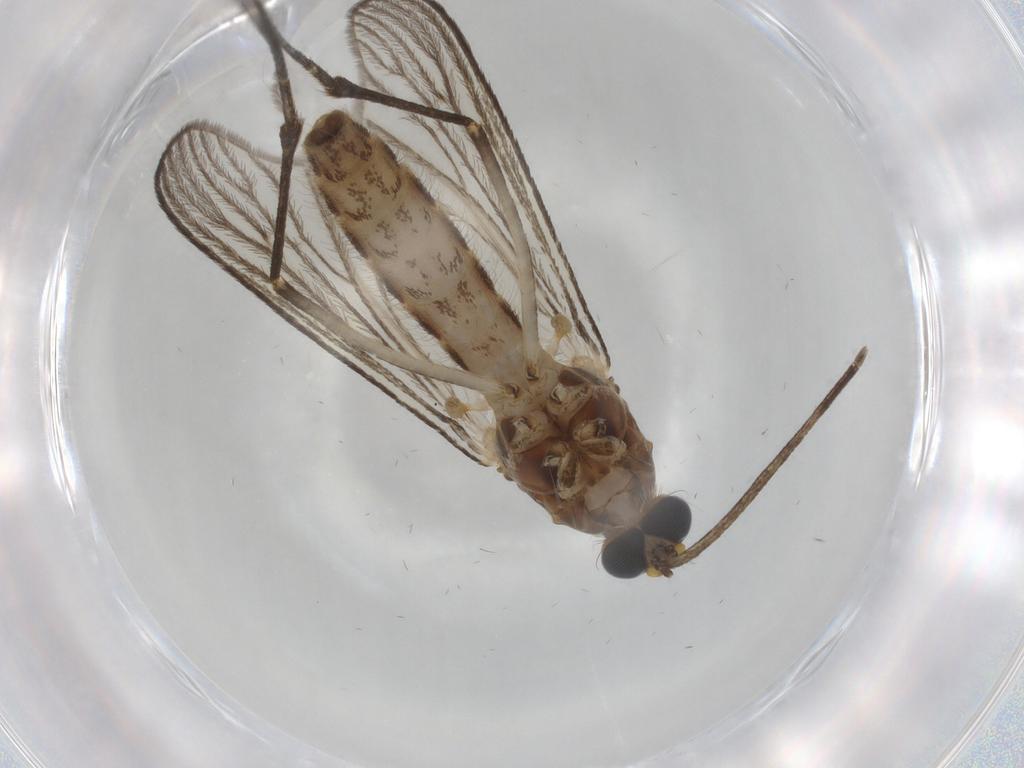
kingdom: Animalia
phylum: Arthropoda
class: Insecta
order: Diptera
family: Chironomidae
